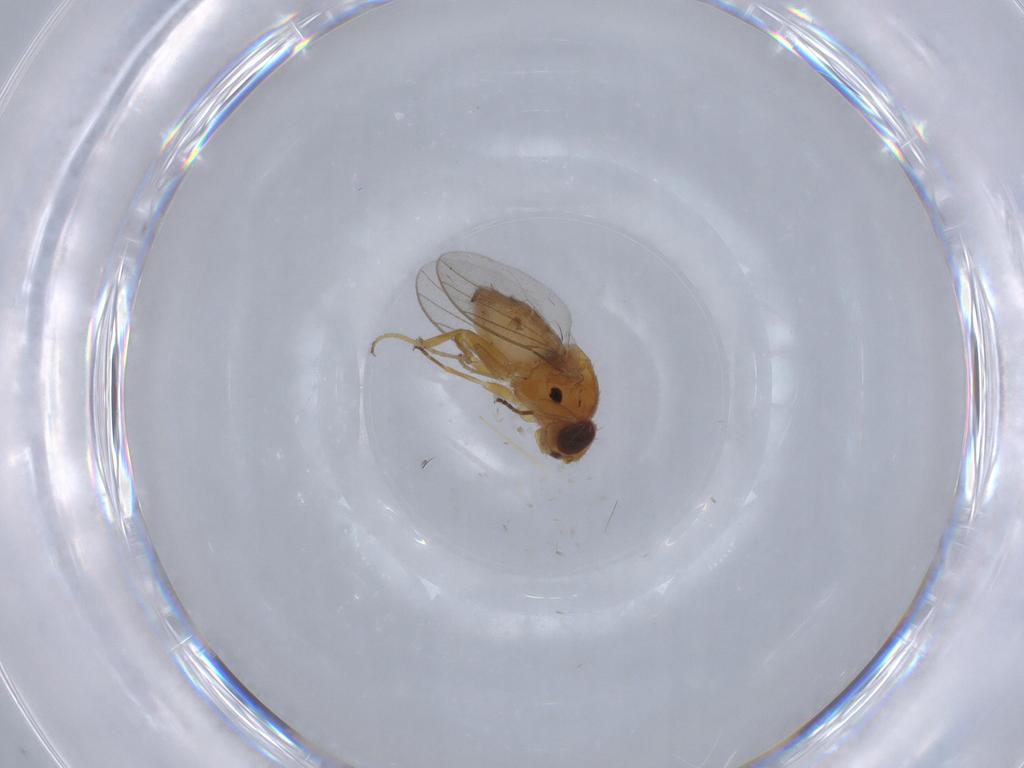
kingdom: Animalia
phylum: Arthropoda
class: Insecta
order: Diptera
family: Chloropidae
